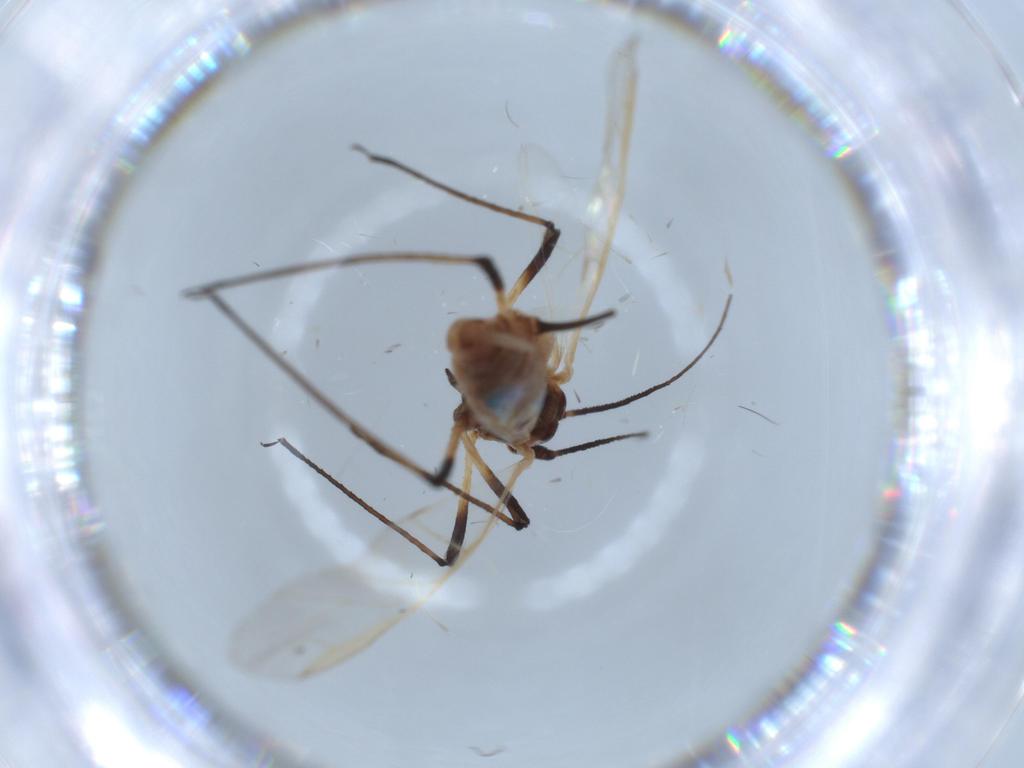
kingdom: Animalia
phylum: Arthropoda
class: Insecta
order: Hemiptera
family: Aphididae
